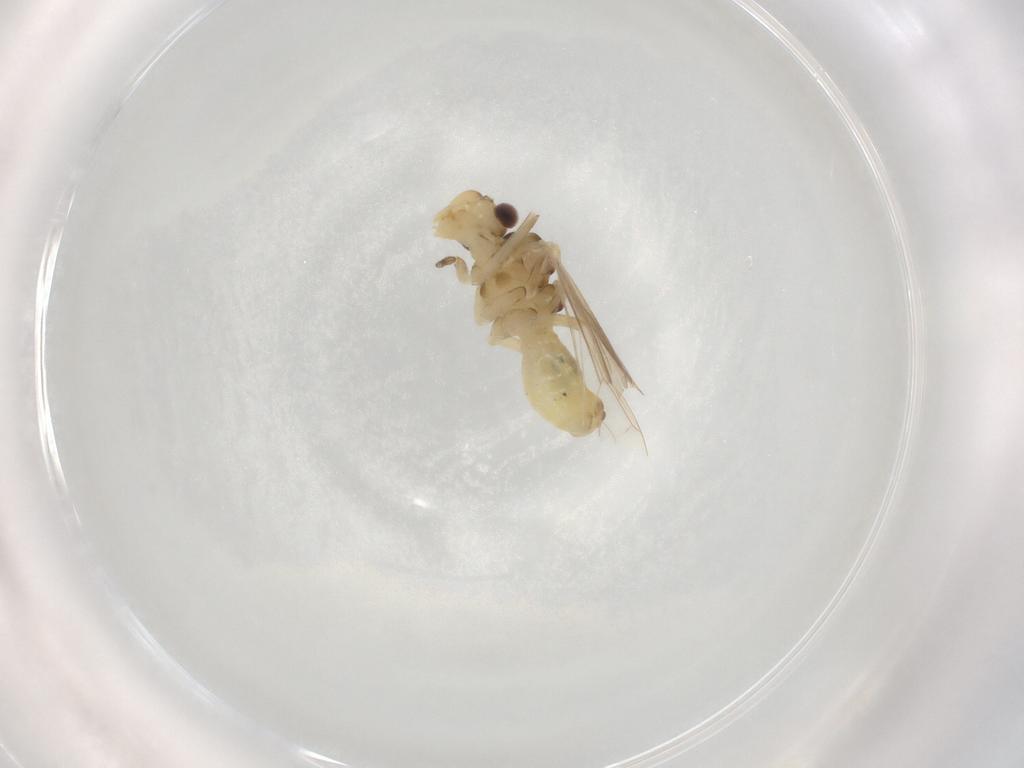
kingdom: Animalia
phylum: Arthropoda
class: Insecta
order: Psocodea
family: Caeciliusidae
